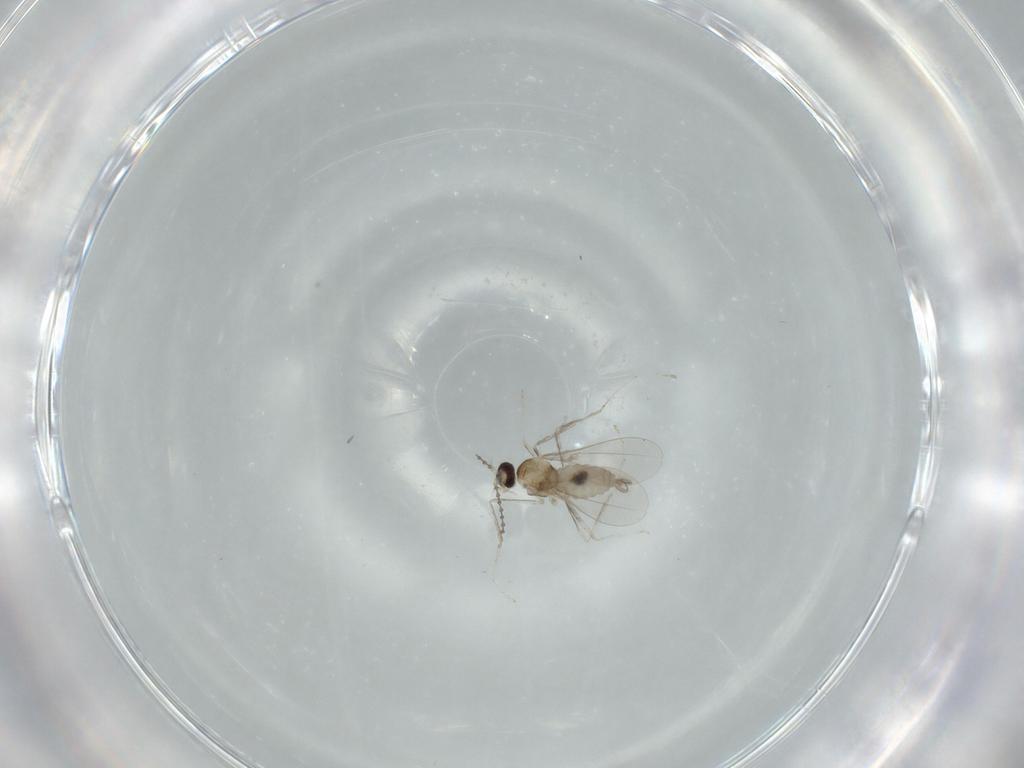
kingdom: Animalia
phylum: Arthropoda
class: Insecta
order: Diptera
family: Cecidomyiidae
